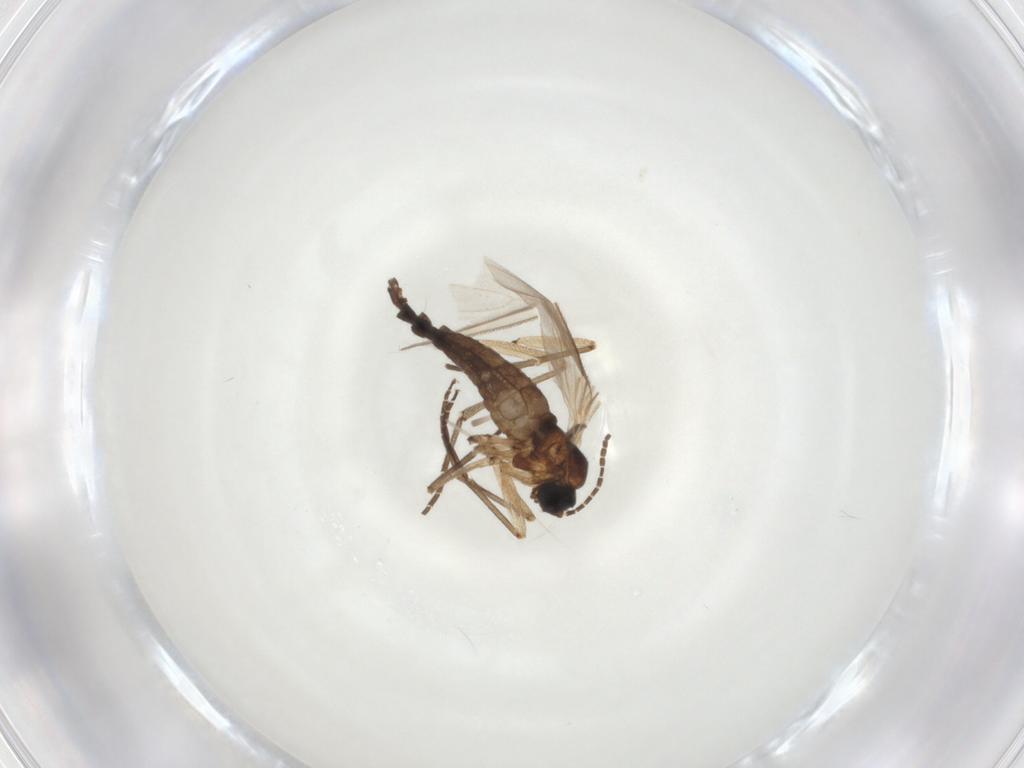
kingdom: Animalia
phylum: Arthropoda
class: Insecta
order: Diptera
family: Sciaridae
